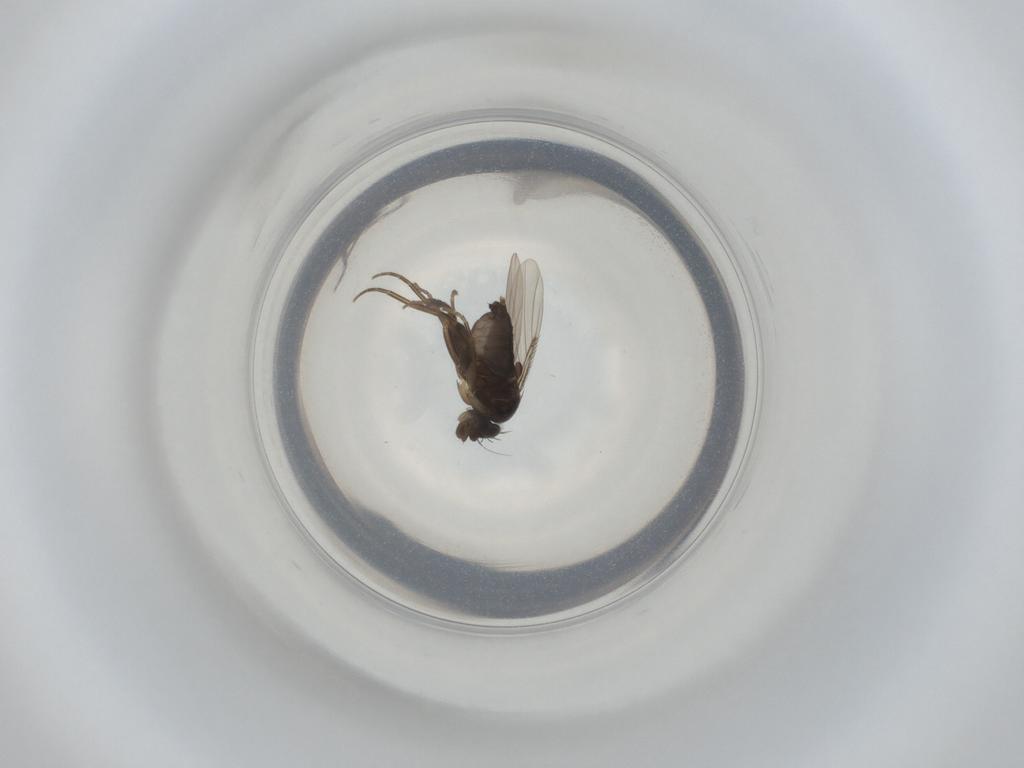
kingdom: Animalia
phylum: Arthropoda
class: Insecta
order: Diptera
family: Phoridae
